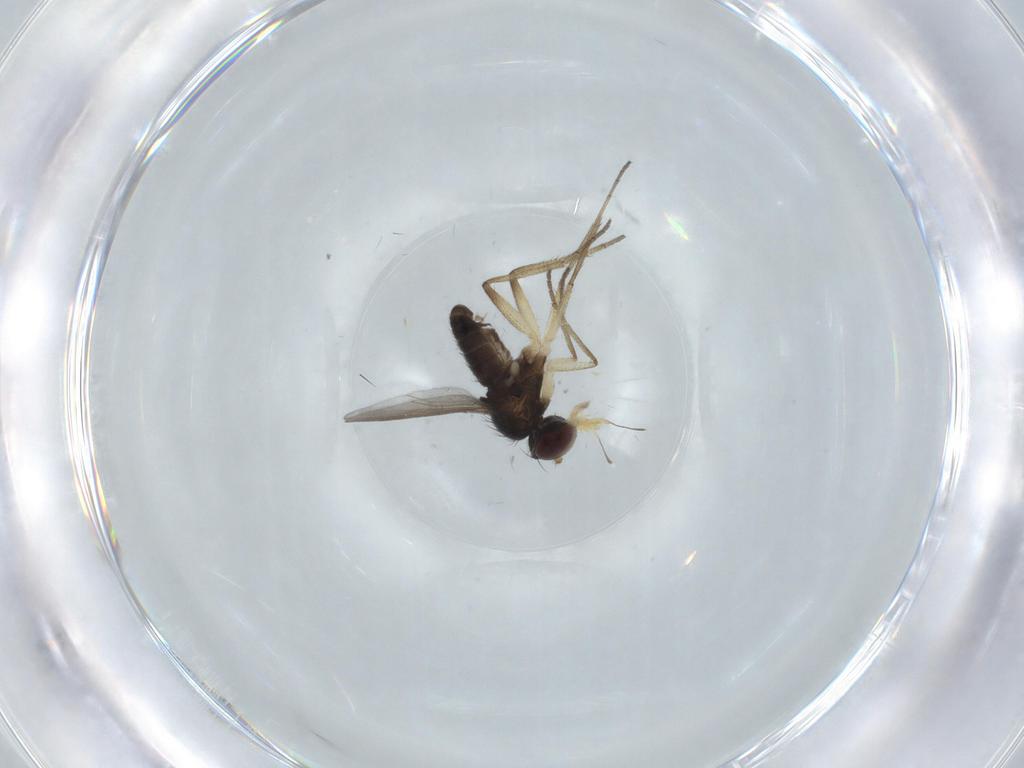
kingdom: Animalia
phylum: Arthropoda
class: Insecta
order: Diptera
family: Dolichopodidae
